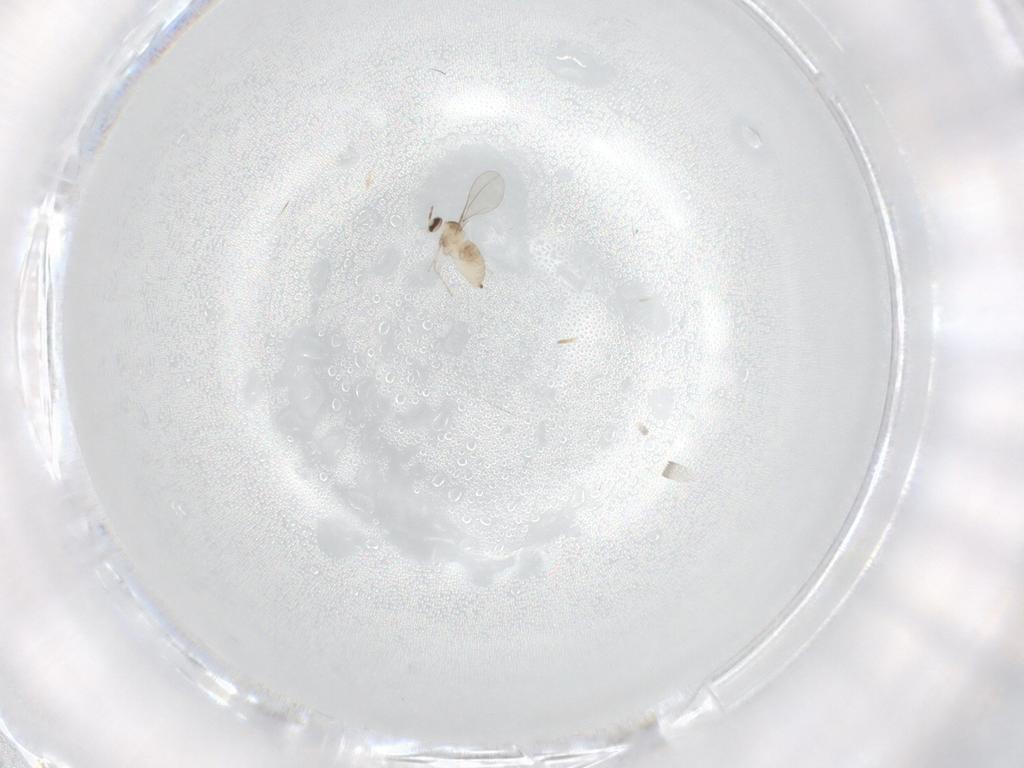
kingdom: Animalia
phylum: Arthropoda
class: Insecta
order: Diptera
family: Cecidomyiidae
